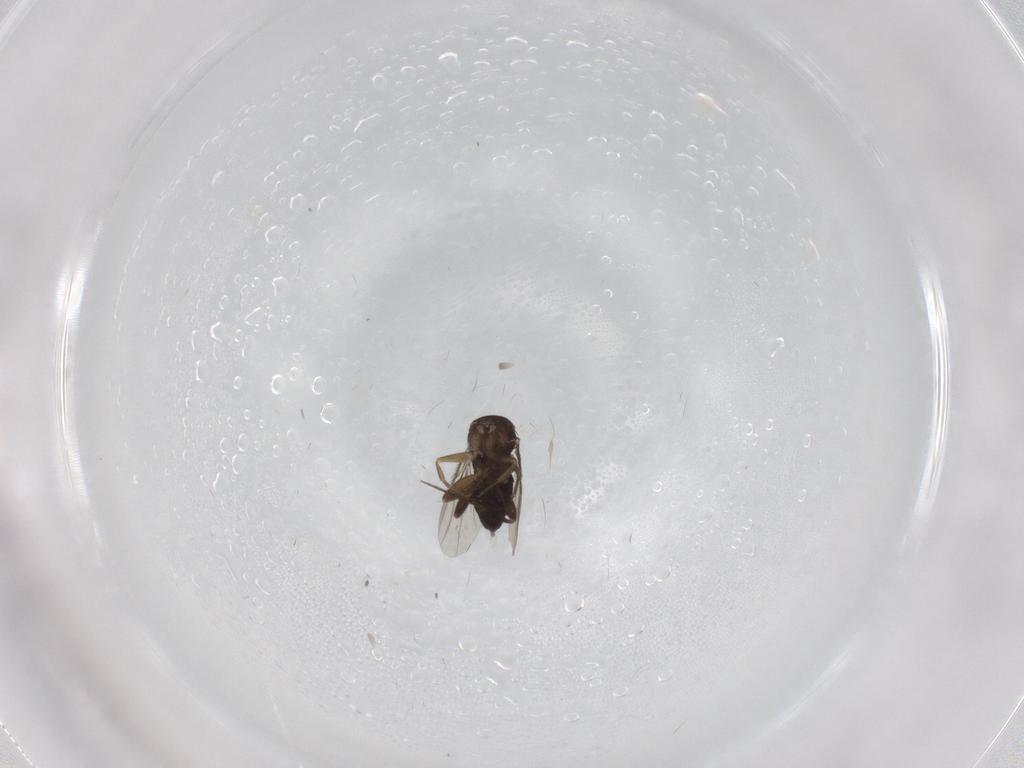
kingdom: Animalia
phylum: Arthropoda
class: Insecta
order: Diptera
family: Phoridae
